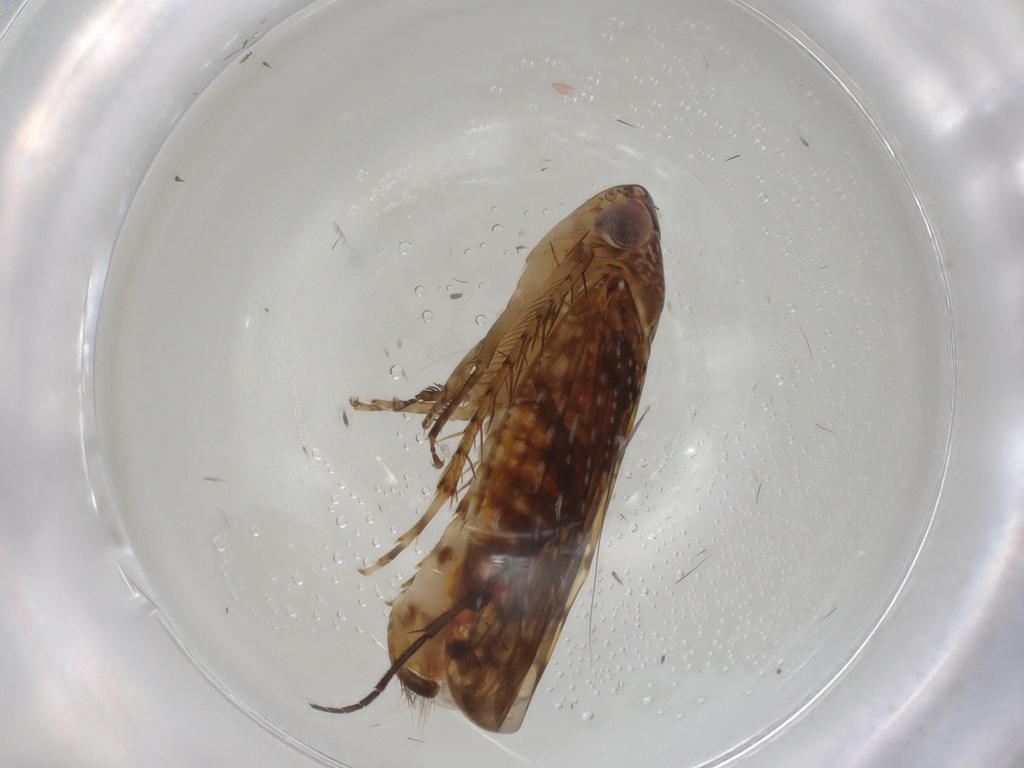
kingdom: Animalia
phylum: Arthropoda
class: Insecta
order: Hemiptera
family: Cicadellidae
